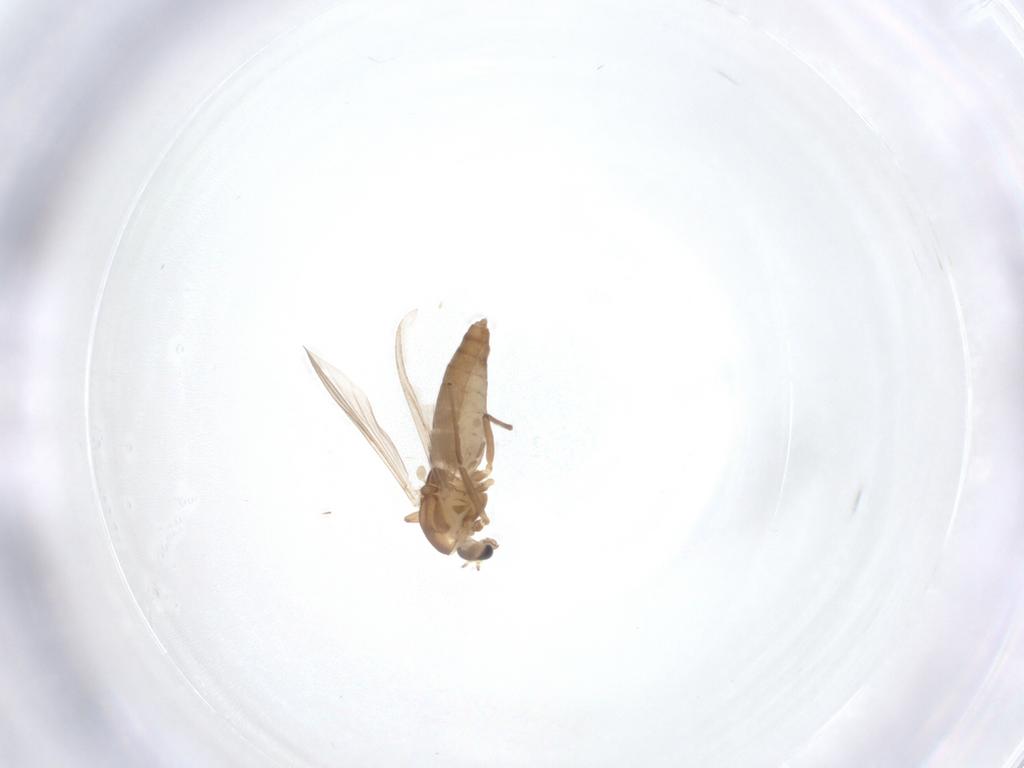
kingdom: Animalia
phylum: Arthropoda
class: Insecta
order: Diptera
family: Chironomidae
